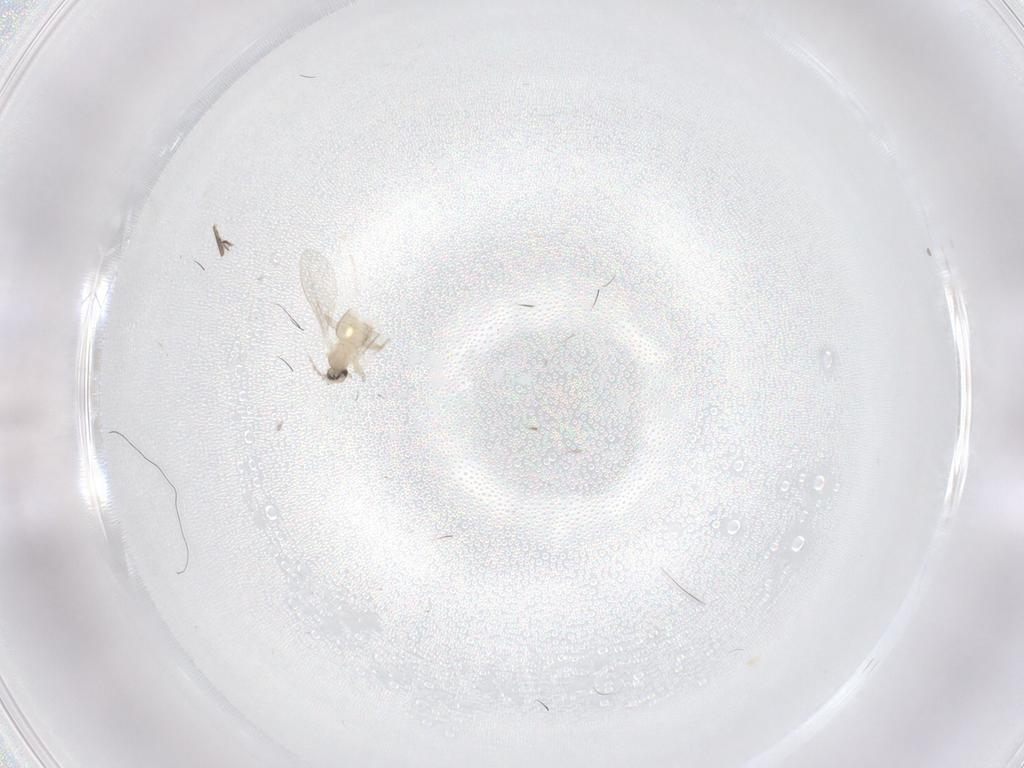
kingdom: Animalia
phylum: Arthropoda
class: Insecta
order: Diptera
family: Cecidomyiidae
